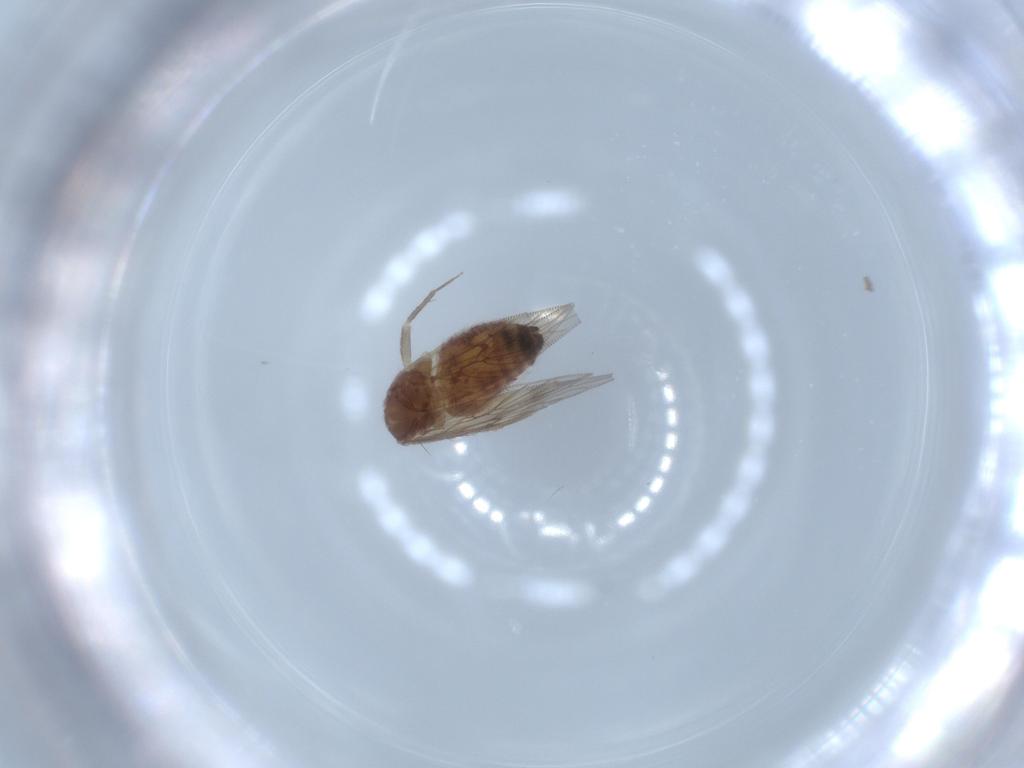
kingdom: Animalia
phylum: Arthropoda
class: Insecta
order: Psocodea
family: Lepidopsocidae
